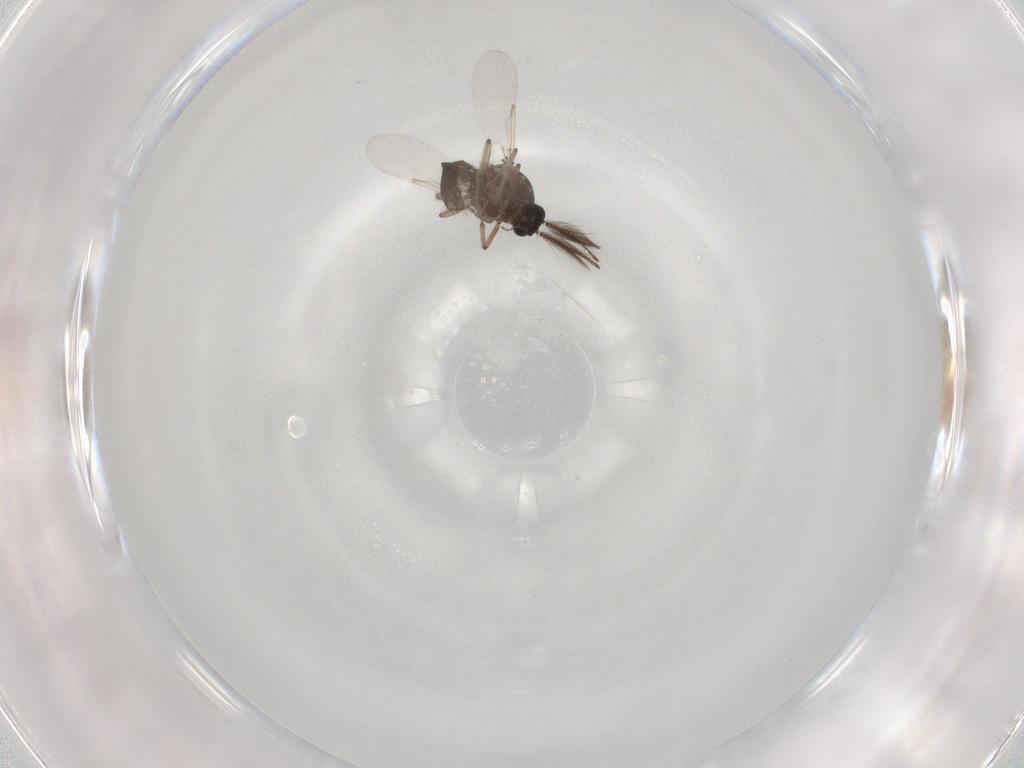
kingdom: Animalia
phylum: Arthropoda
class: Insecta
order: Diptera
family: Chironomidae
